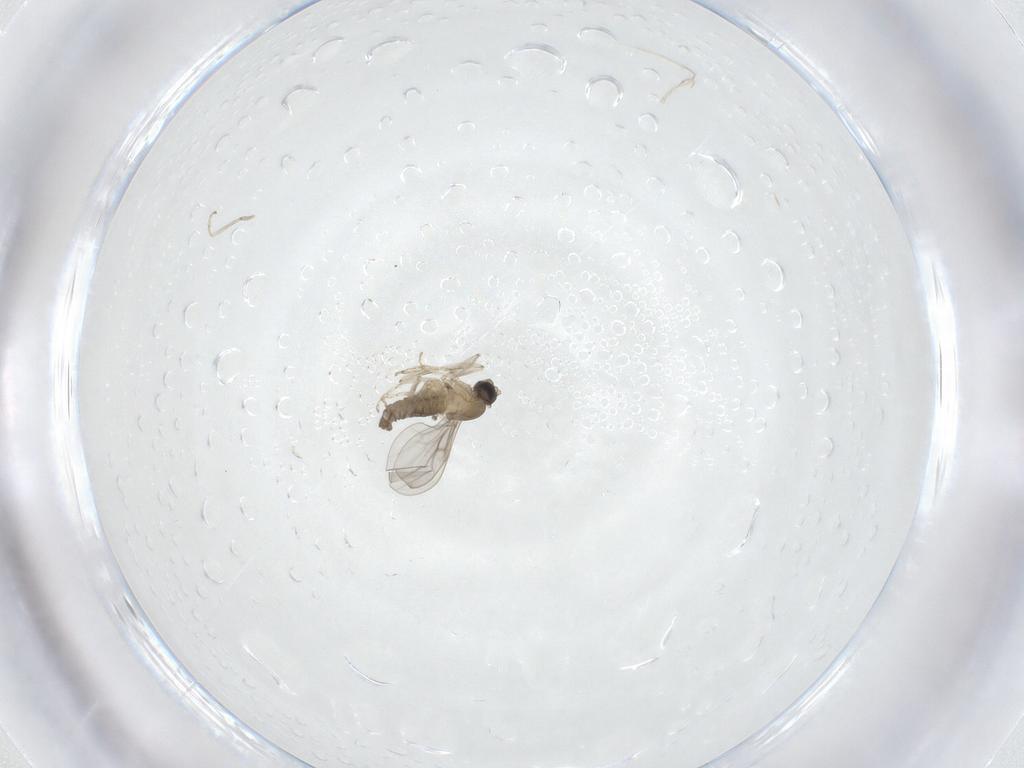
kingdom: Animalia
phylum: Arthropoda
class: Insecta
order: Diptera
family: Cecidomyiidae
